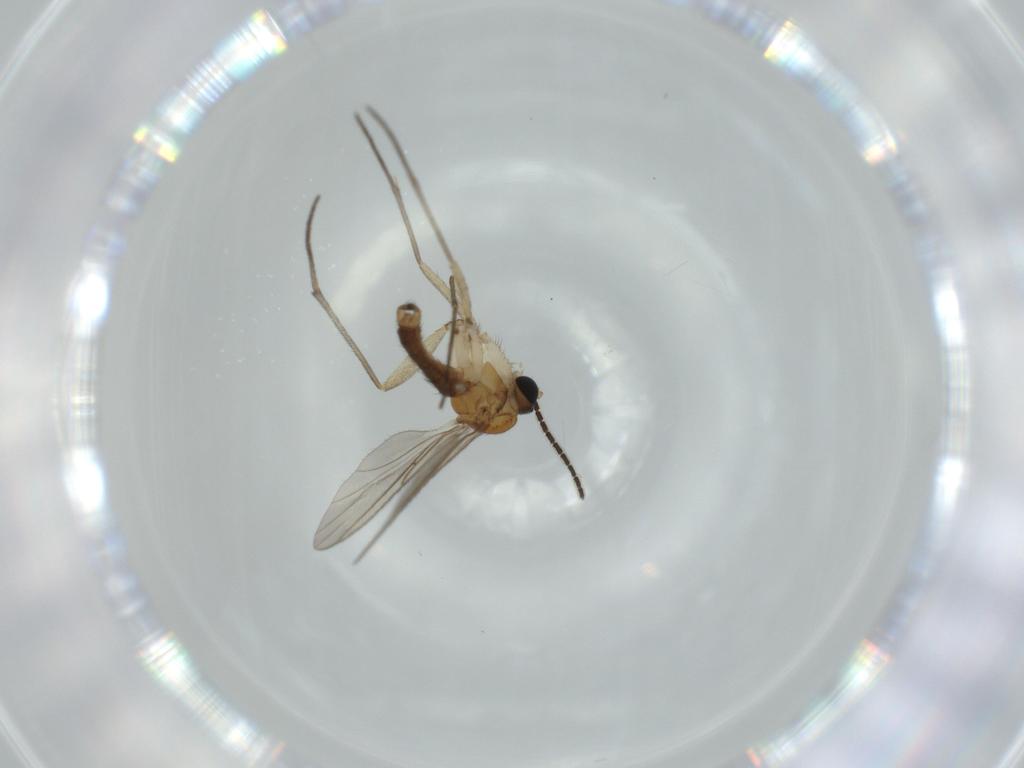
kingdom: Animalia
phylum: Arthropoda
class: Insecta
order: Diptera
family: Sciaridae
